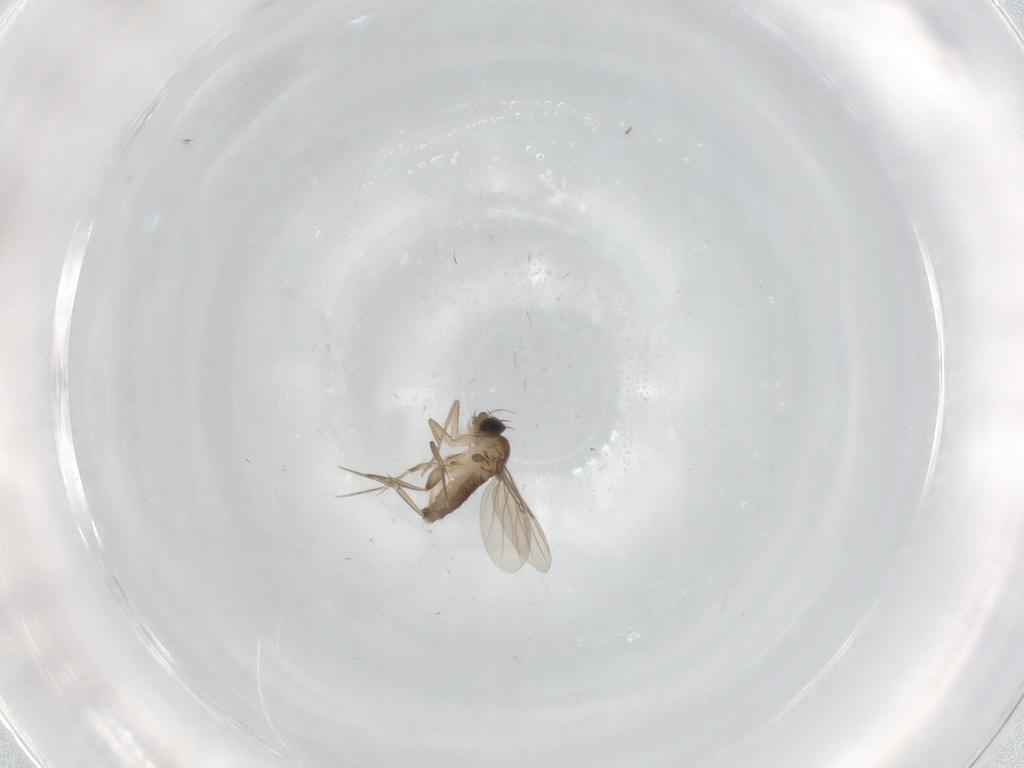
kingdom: Animalia
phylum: Arthropoda
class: Insecta
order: Diptera
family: Phoridae
